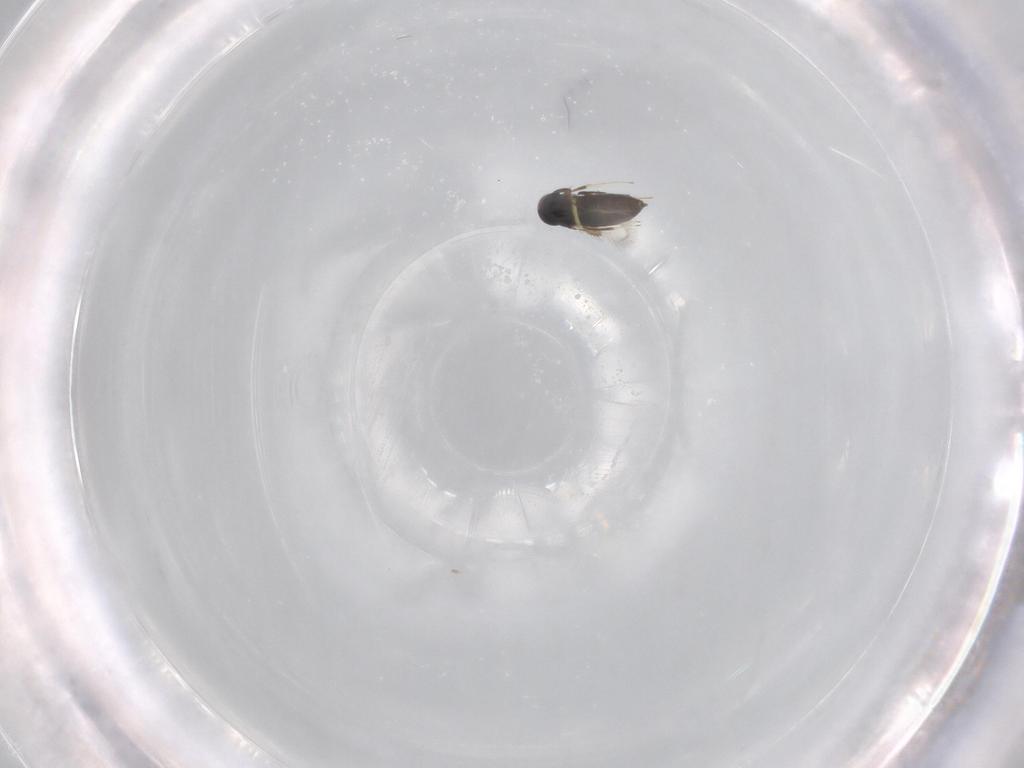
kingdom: Animalia
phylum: Arthropoda
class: Insecta
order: Hymenoptera
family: Signiphoridae
